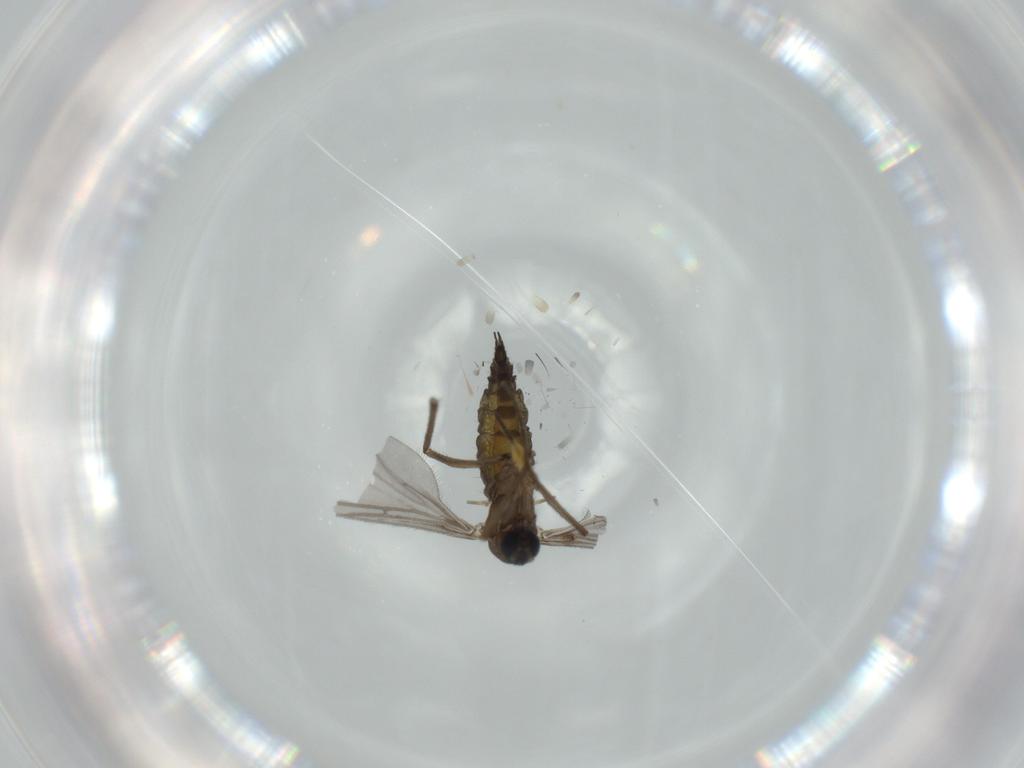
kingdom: Animalia
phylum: Arthropoda
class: Insecta
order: Diptera
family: Sciaridae
